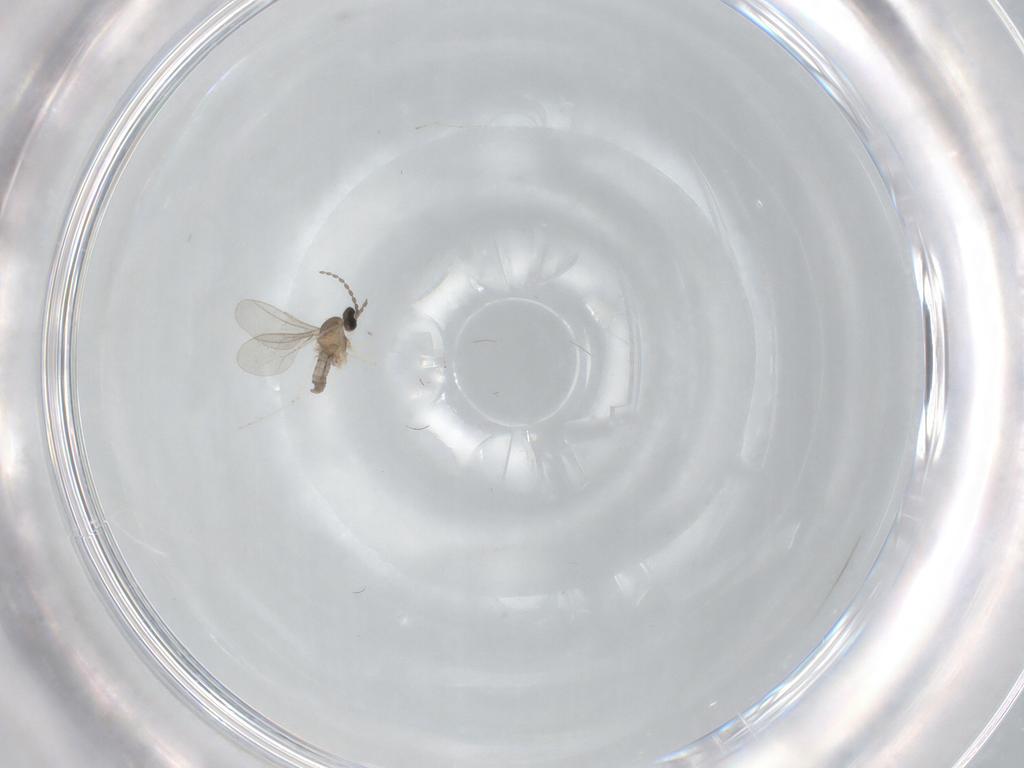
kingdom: Animalia
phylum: Arthropoda
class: Insecta
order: Diptera
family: Cecidomyiidae
